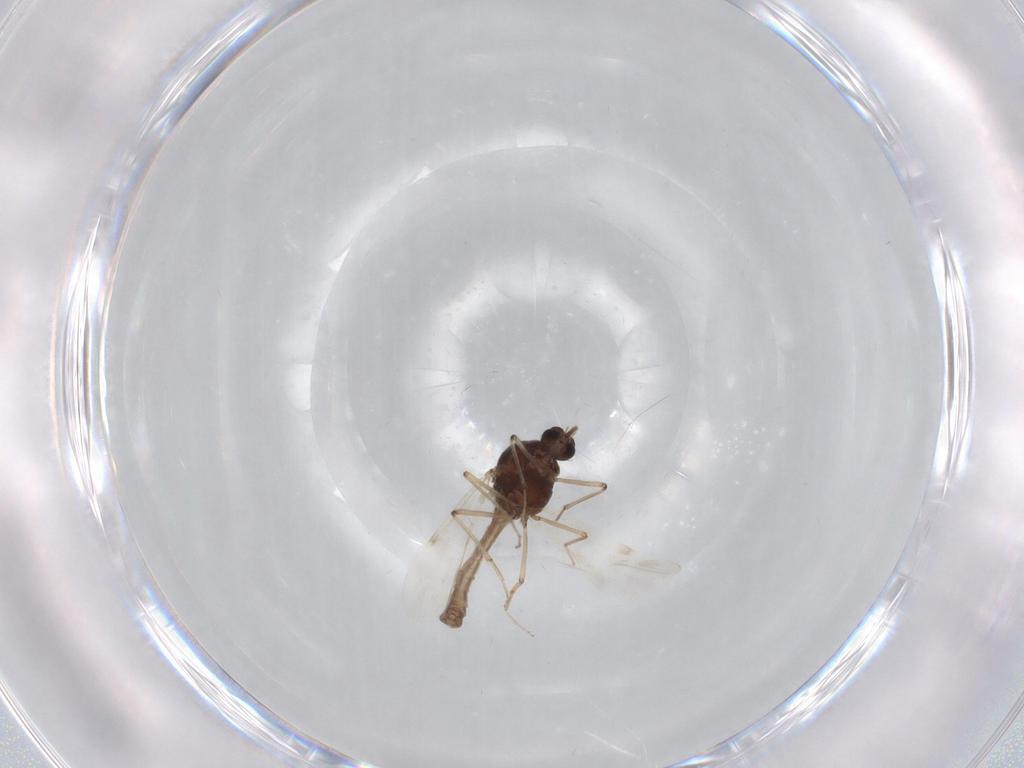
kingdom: Animalia
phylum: Arthropoda
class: Insecta
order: Diptera
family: Ceratopogonidae
